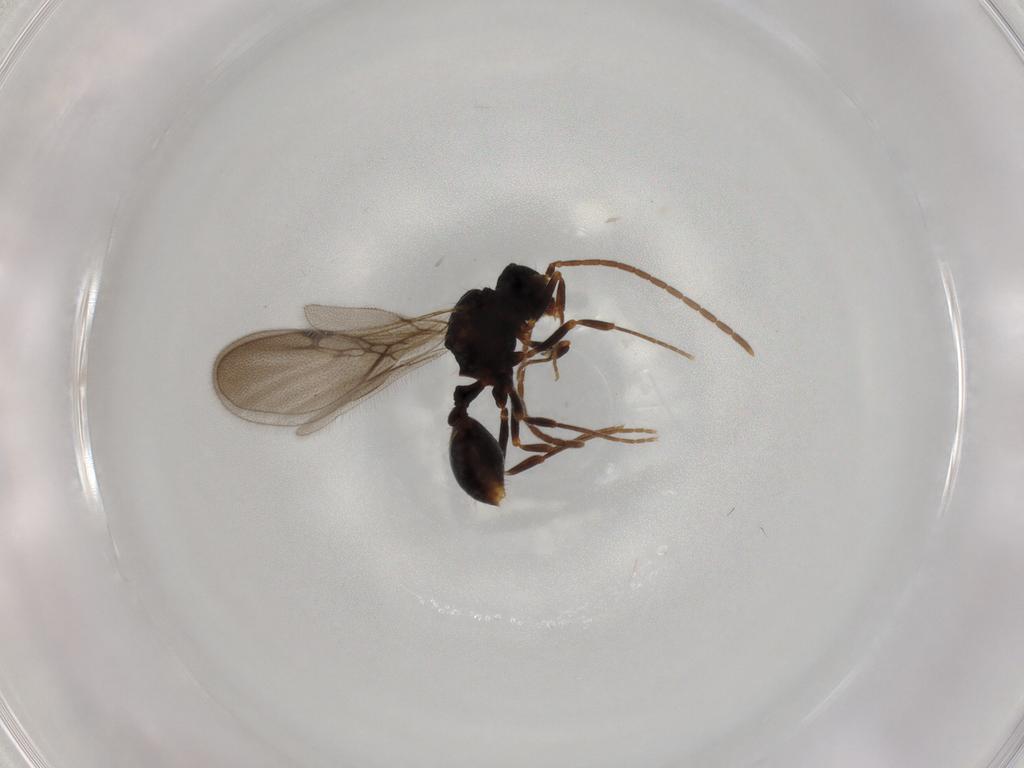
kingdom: Animalia
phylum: Arthropoda
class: Insecta
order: Hymenoptera
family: Formicidae
